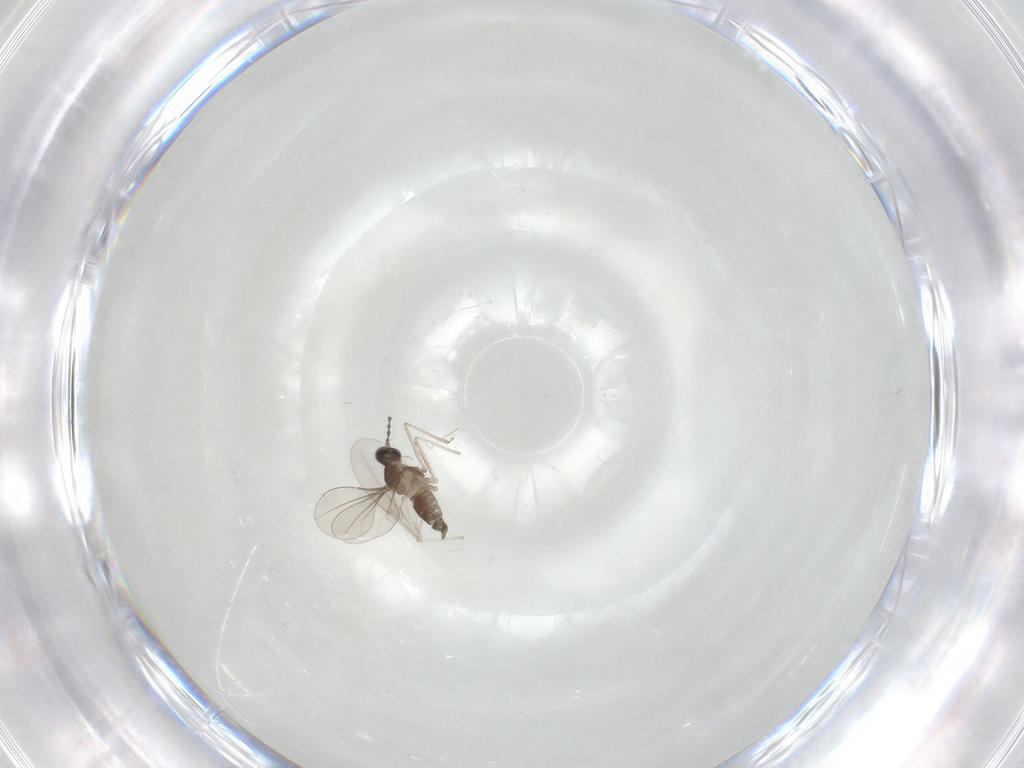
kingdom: Animalia
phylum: Arthropoda
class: Insecta
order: Diptera
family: Cecidomyiidae
